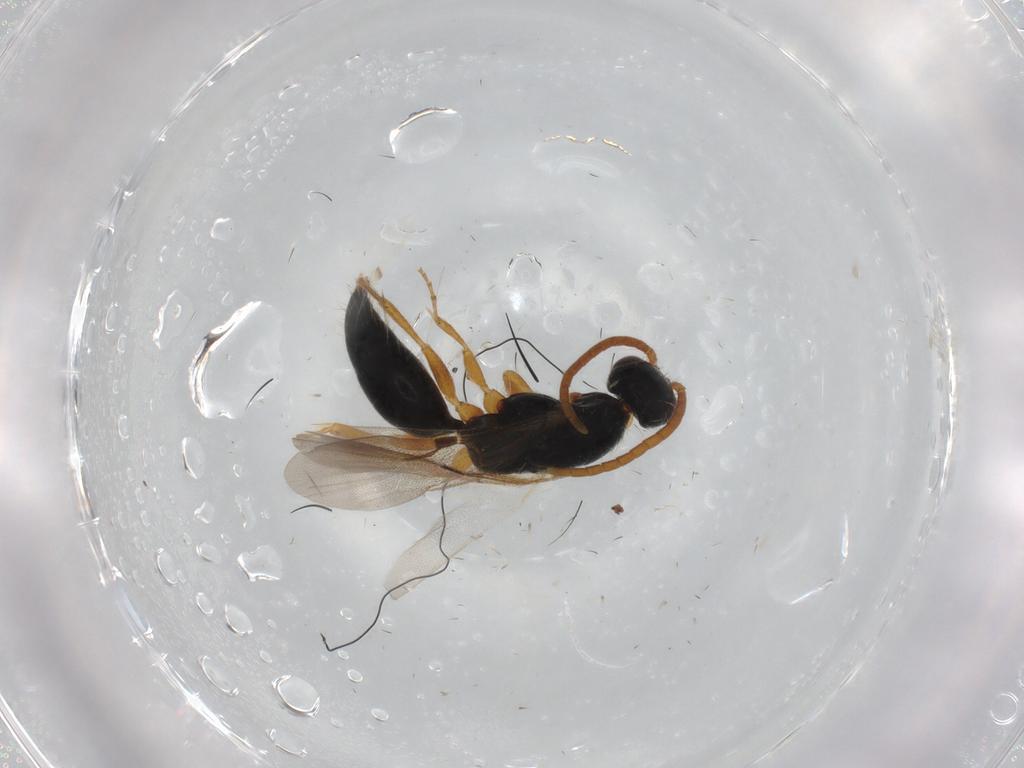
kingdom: Animalia
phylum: Arthropoda
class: Insecta
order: Hymenoptera
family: Bethylidae
